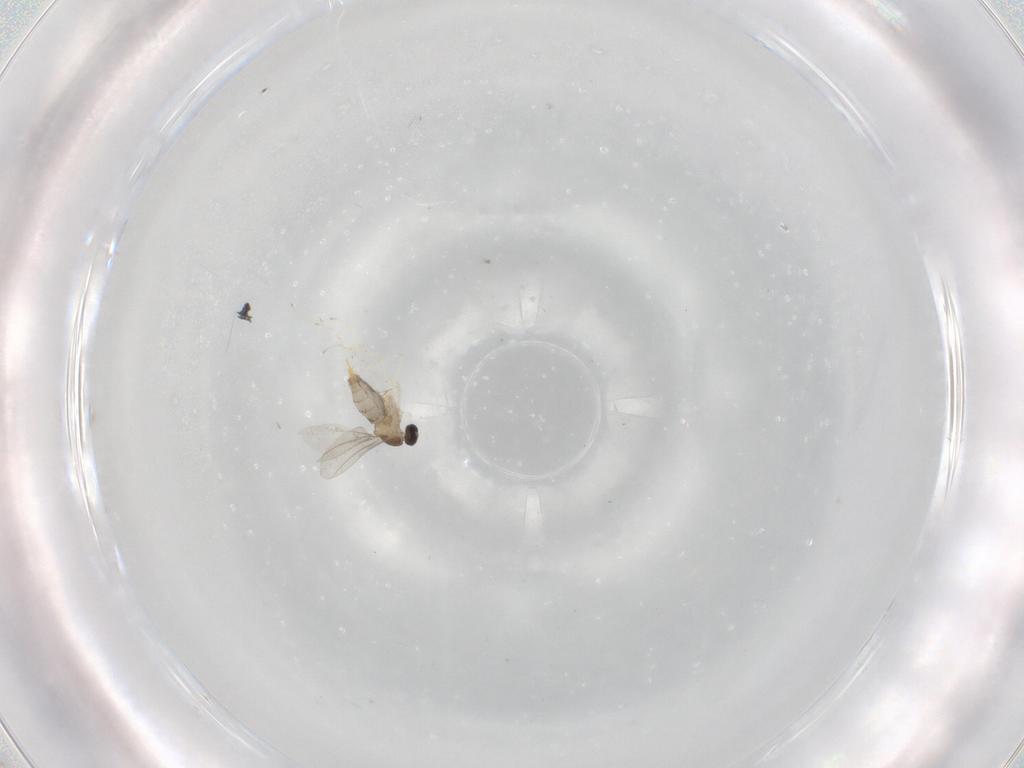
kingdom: Animalia
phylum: Arthropoda
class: Insecta
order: Diptera
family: Cecidomyiidae
